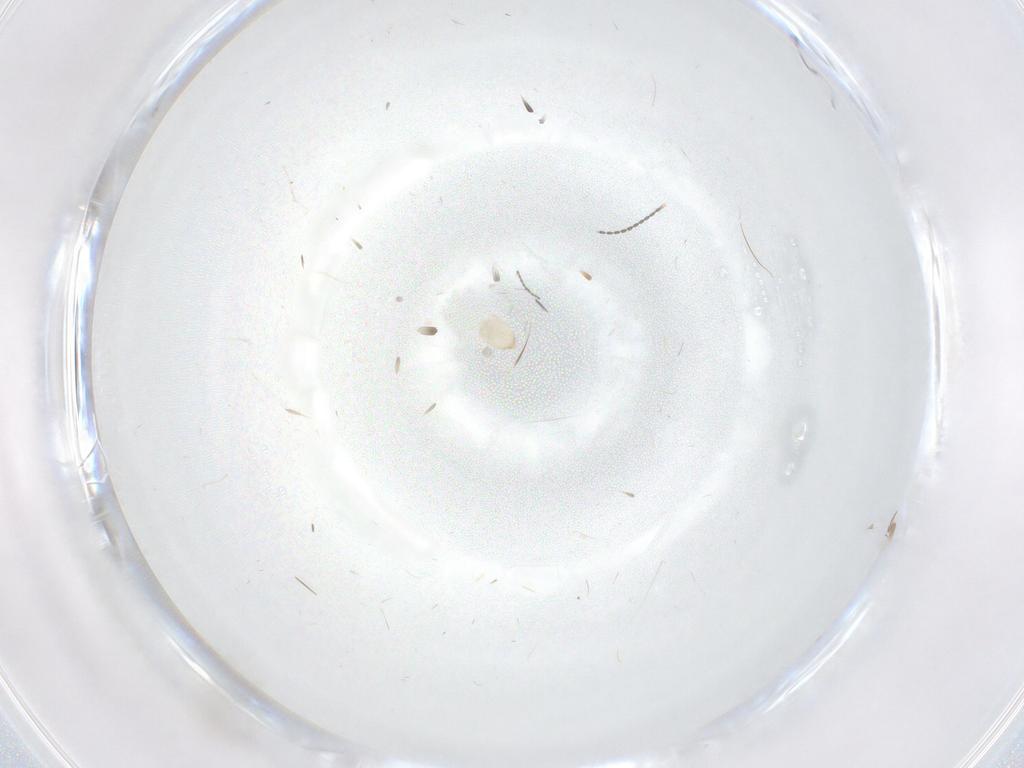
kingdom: Animalia
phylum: Arthropoda
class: Insecta
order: Diptera
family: Cecidomyiidae
